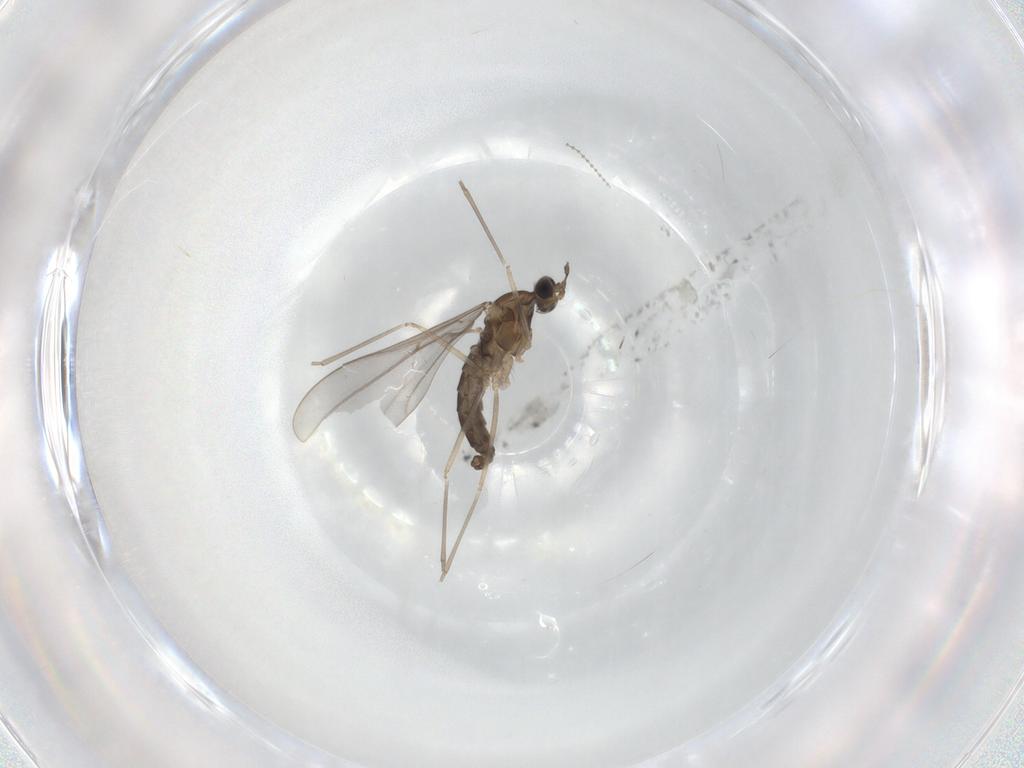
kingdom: Animalia
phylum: Arthropoda
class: Insecta
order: Diptera
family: Cecidomyiidae
